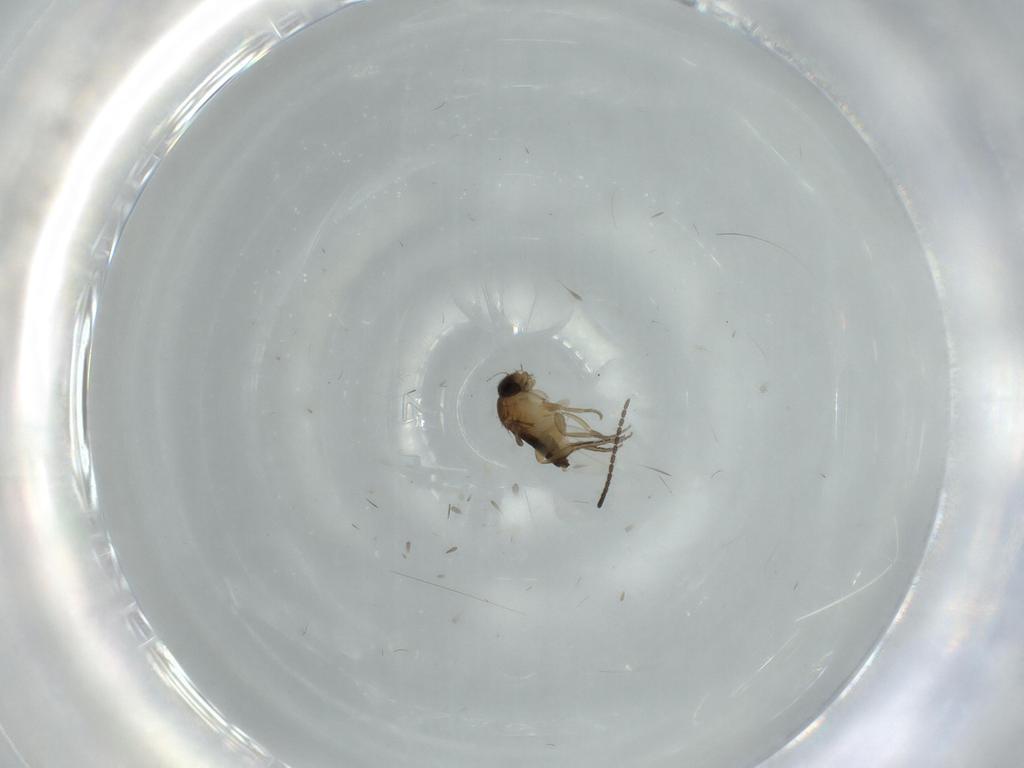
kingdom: Animalia
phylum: Arthropoda
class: Insecta
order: Diptera
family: Phoridae
